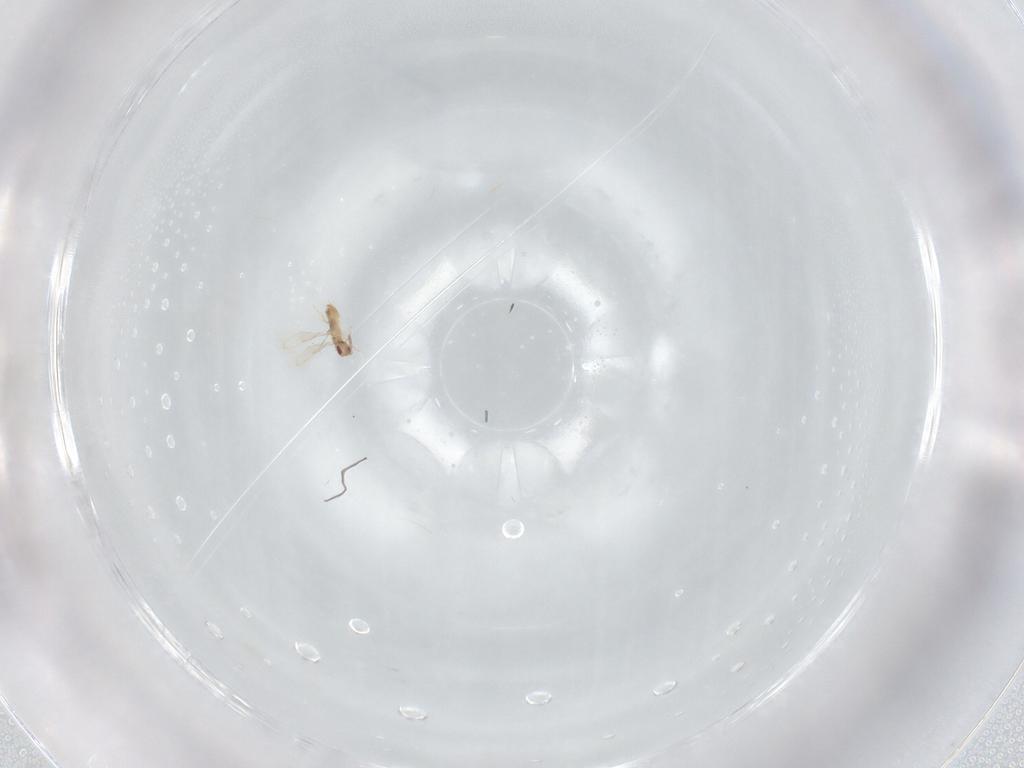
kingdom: Animalia
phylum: Arthropoda
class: Insecta
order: Hymenoptera
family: Aphelinidae
